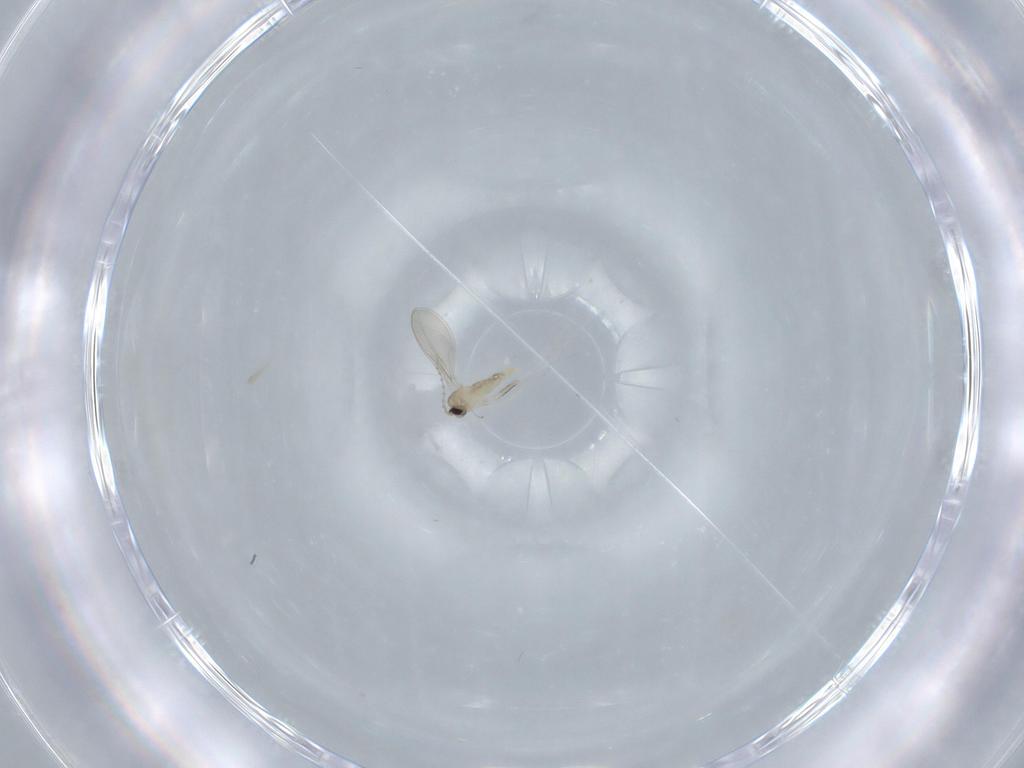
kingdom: Animalia
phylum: Arthropoda
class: Insecta
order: Diptera
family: Cecidomyiidae
